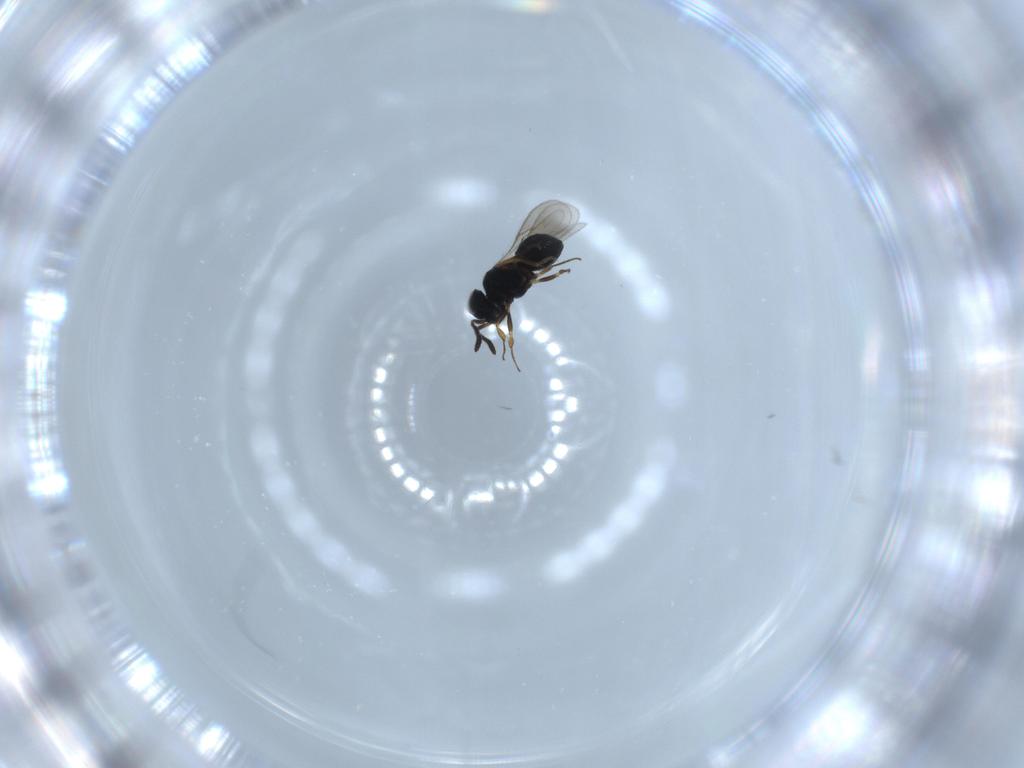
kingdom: Animalia
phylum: Arthropoda
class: Insecta
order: Hymenoptera
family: Scelionidae
